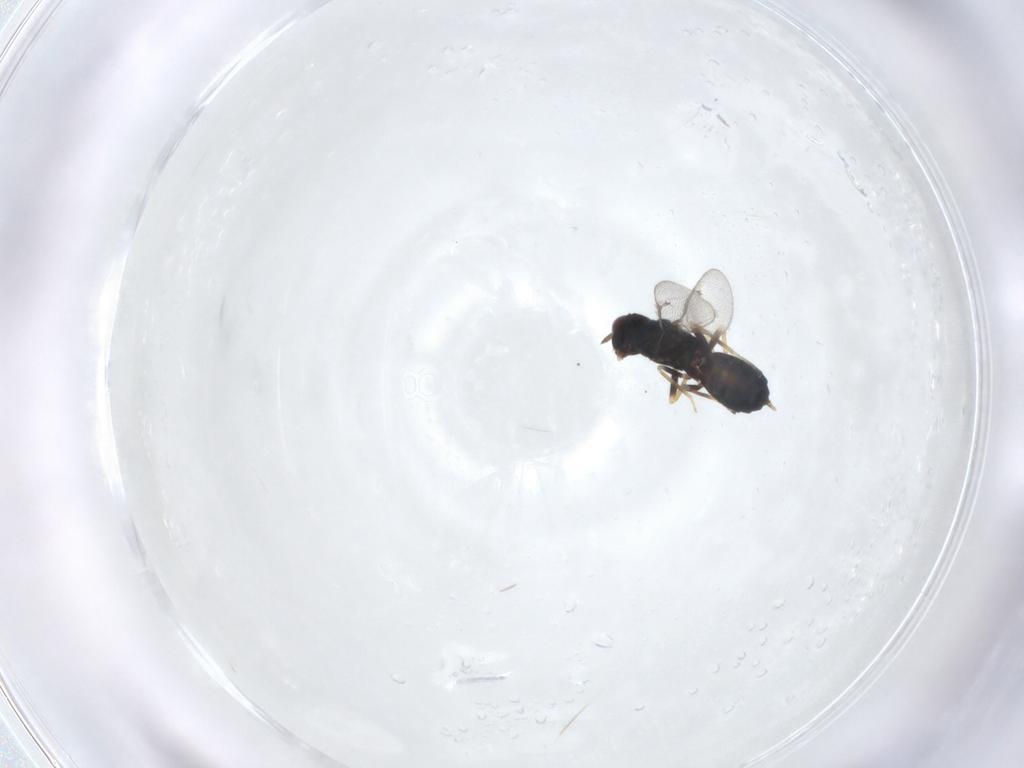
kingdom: Animalia
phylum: Arthropoda
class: Insecta
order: Hymenoptera
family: Eulophidae
